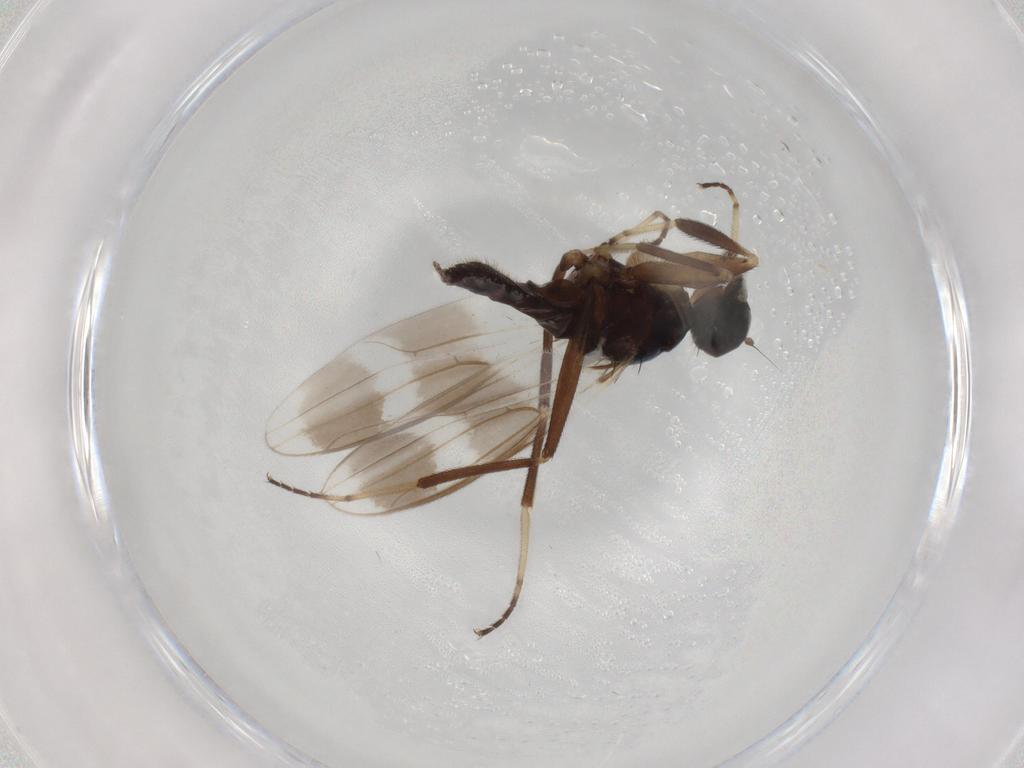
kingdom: Animalia
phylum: Arthropoda
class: Insecta
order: Diptera
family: Hybotidae
